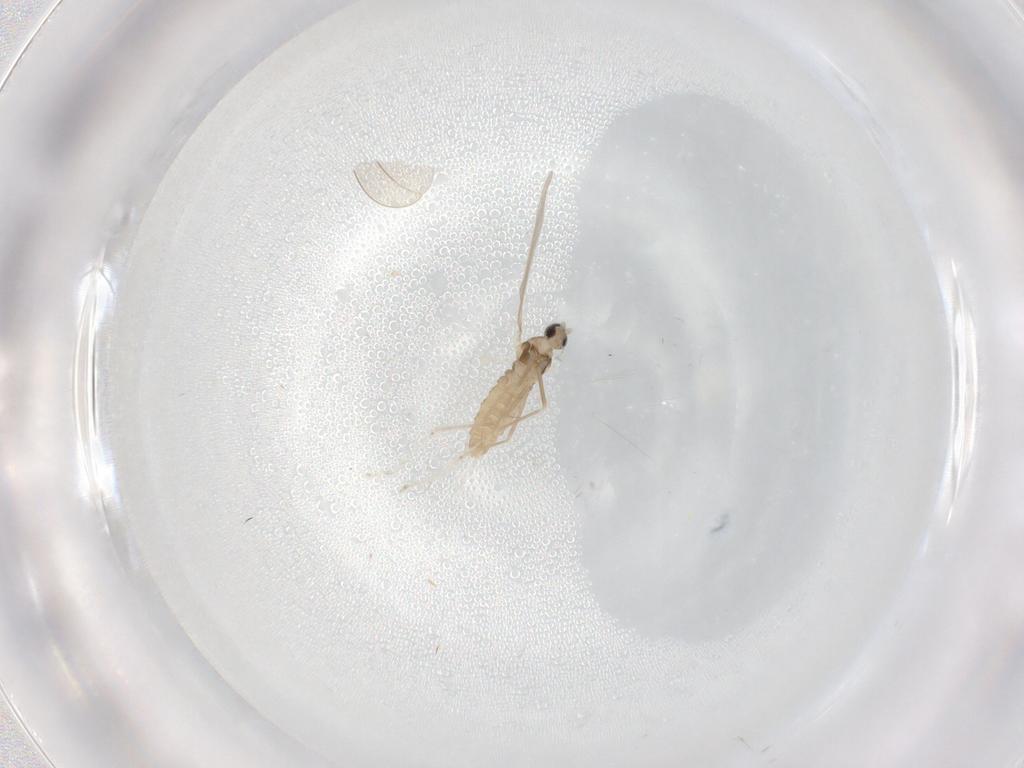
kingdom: Animalia
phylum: Arthropoda
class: Insecta
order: Diptera
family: Cecidomyiidae
